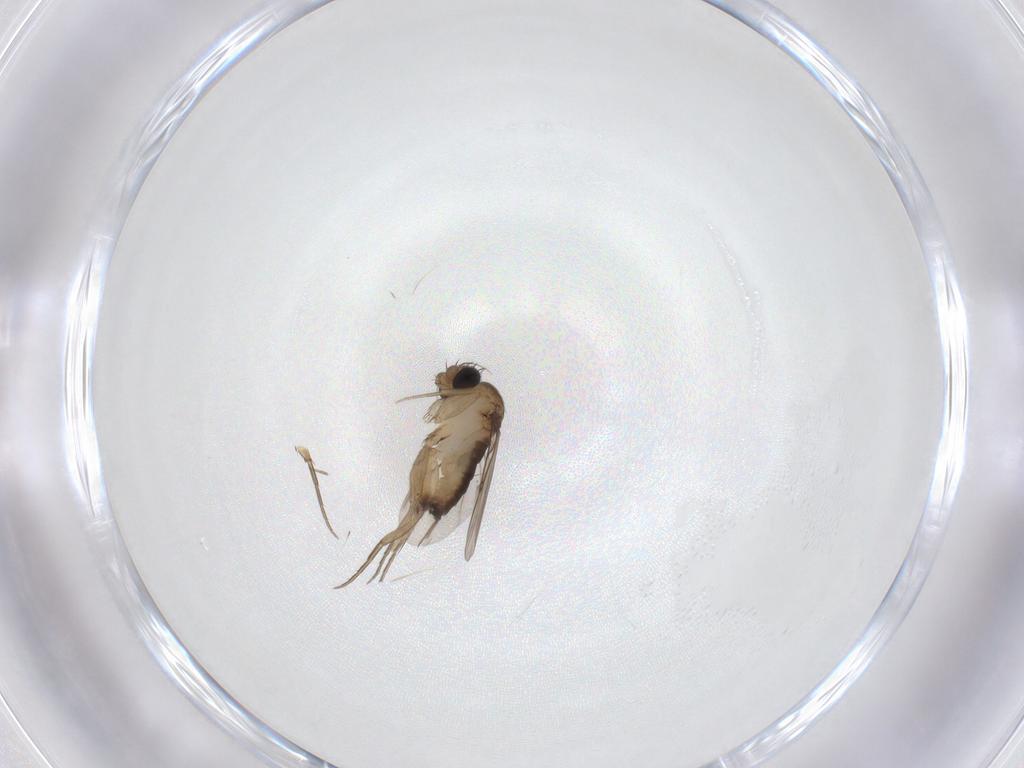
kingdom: Animalia
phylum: Arthropoda
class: Insecta
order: Diptera
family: Phoridae
